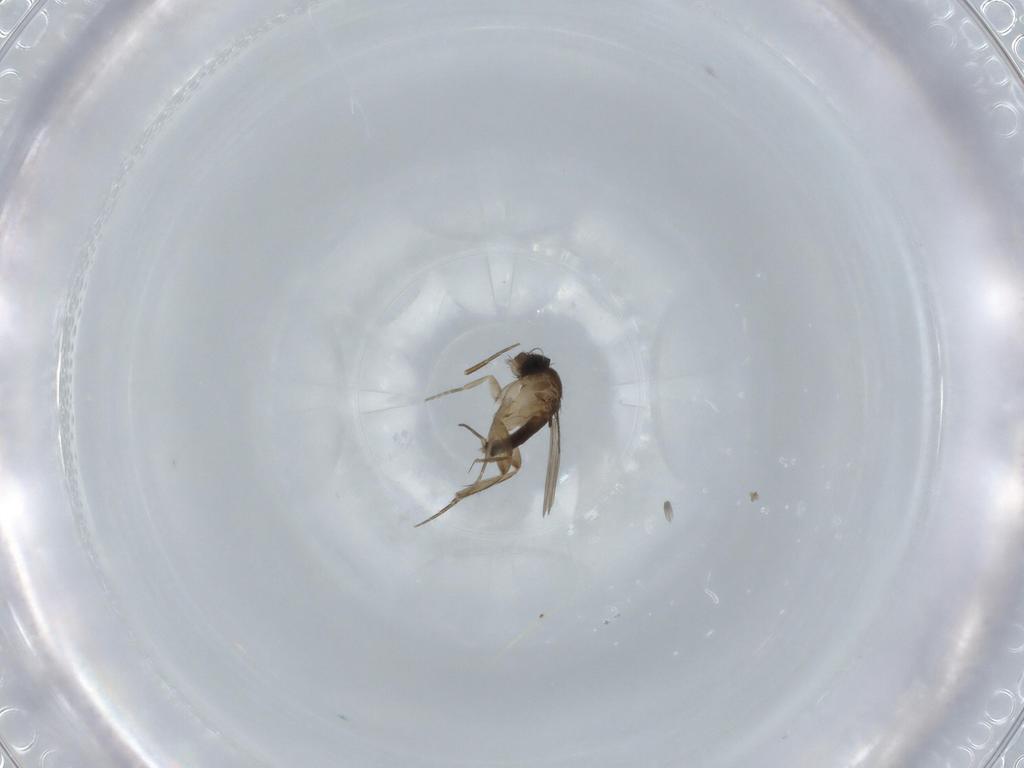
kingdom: Animalia
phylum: Arthropoda
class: Insecta
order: Diptera
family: Phoridae
